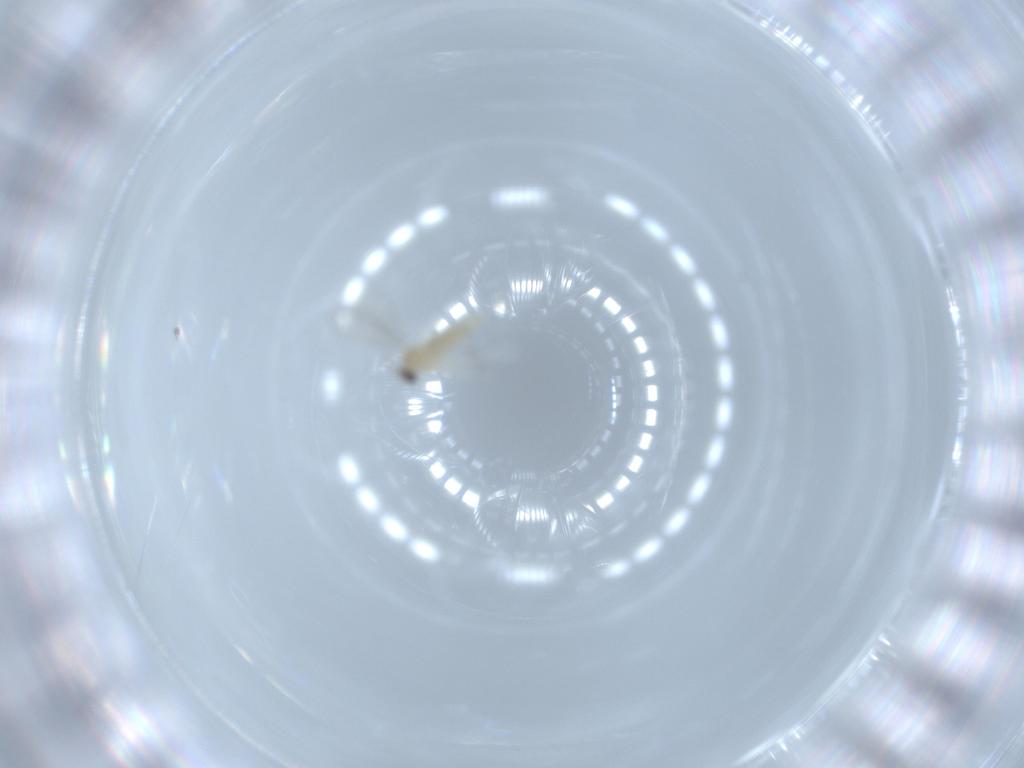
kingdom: Animalia
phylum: Arthropoda
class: Insecta
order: Diptera
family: Cecidomyiidae
